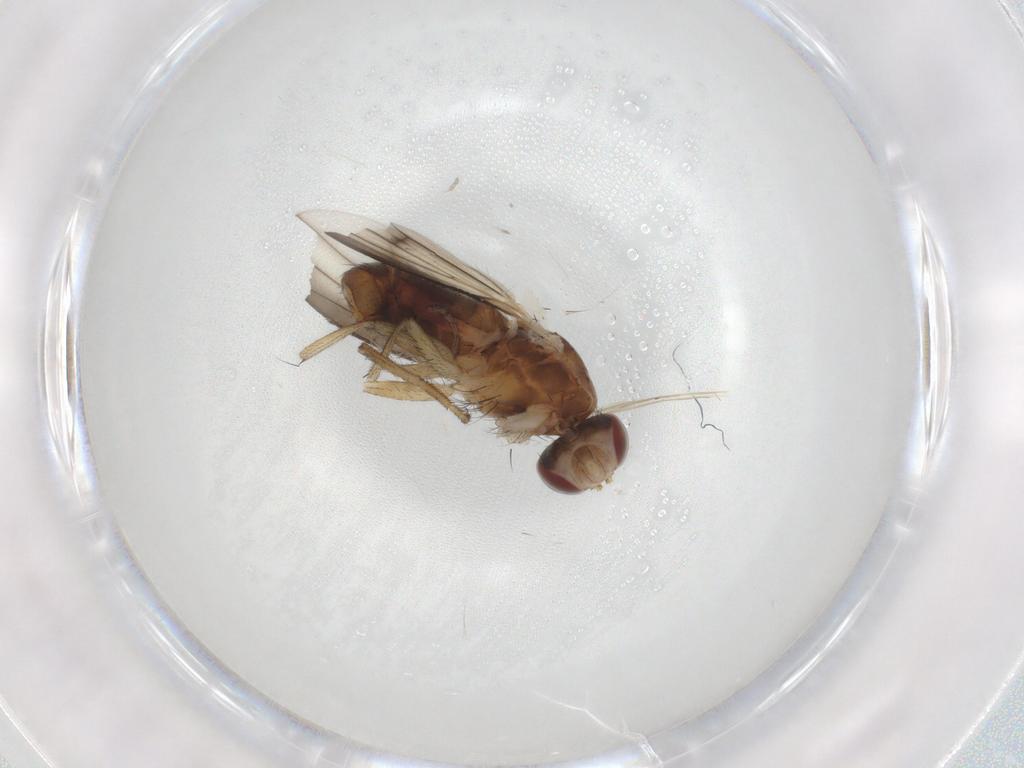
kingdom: Animalia
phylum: Arthropoda
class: Insecta
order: Diptera
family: Heleomyzidae
